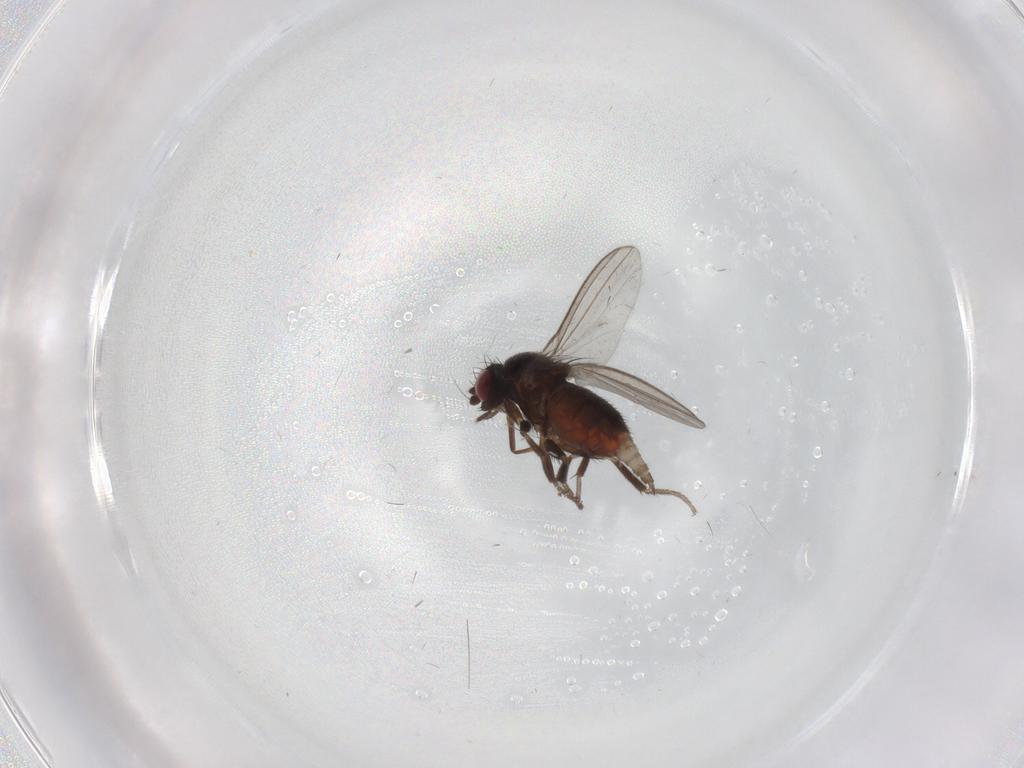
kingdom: Animalia
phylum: Arthropoda
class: Insecta
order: Diptera
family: Milichiidae
